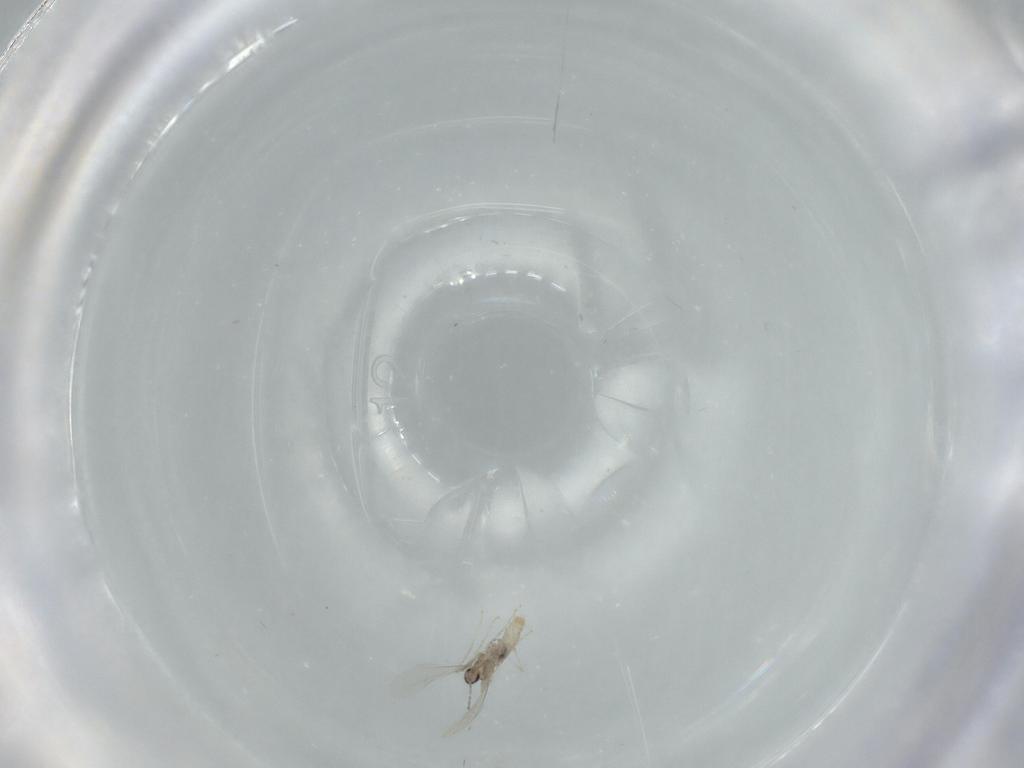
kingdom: Animalia
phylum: Arthropoda
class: Insecta
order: Diptera
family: Cecidomyiidae
